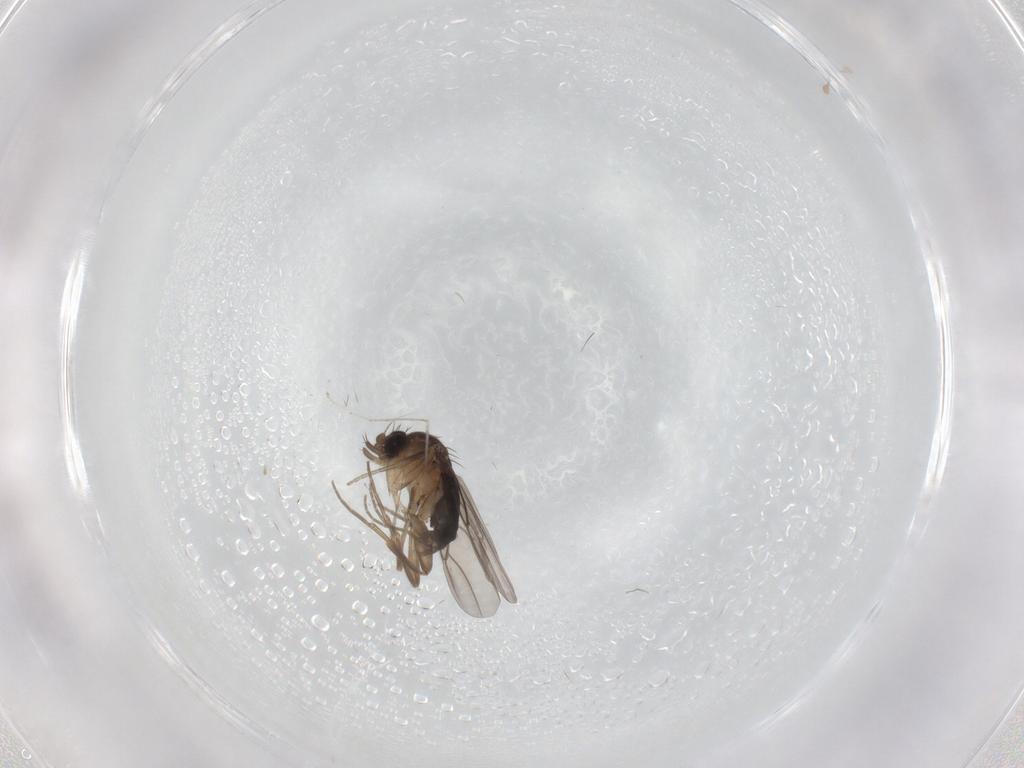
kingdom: Animalia
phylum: Arthropoda
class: Insecta
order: Diptera
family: Phoridae
